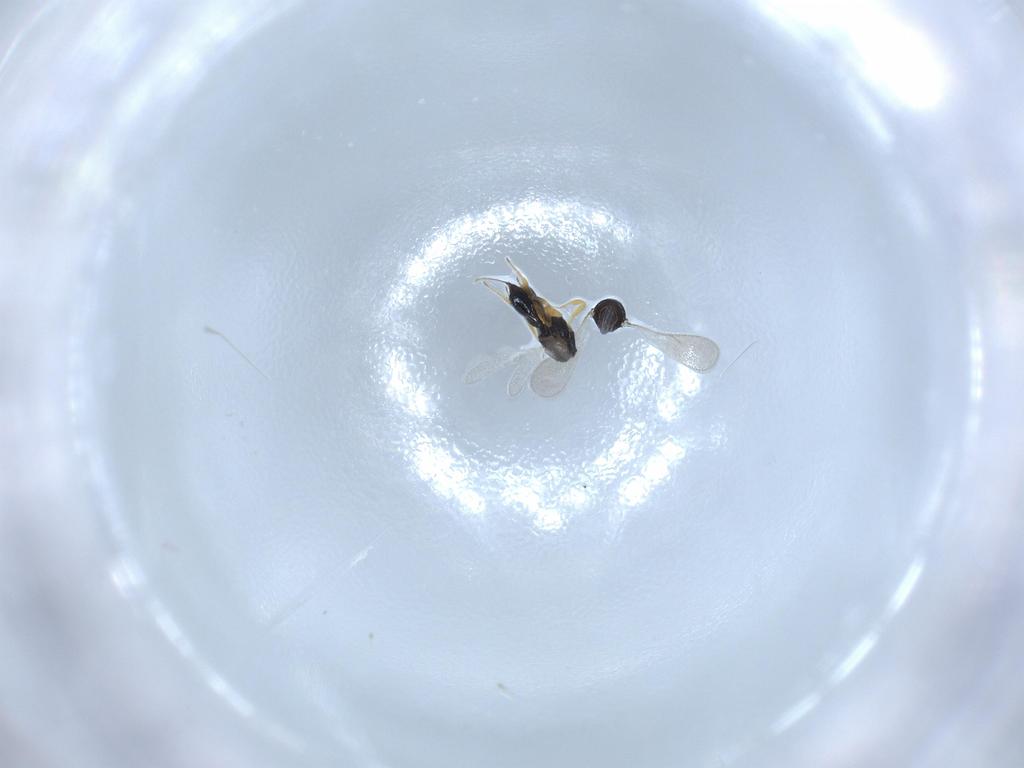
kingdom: Animalia
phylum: Arthropoda
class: Insecta
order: Hymenoptera
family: Scelionidae
